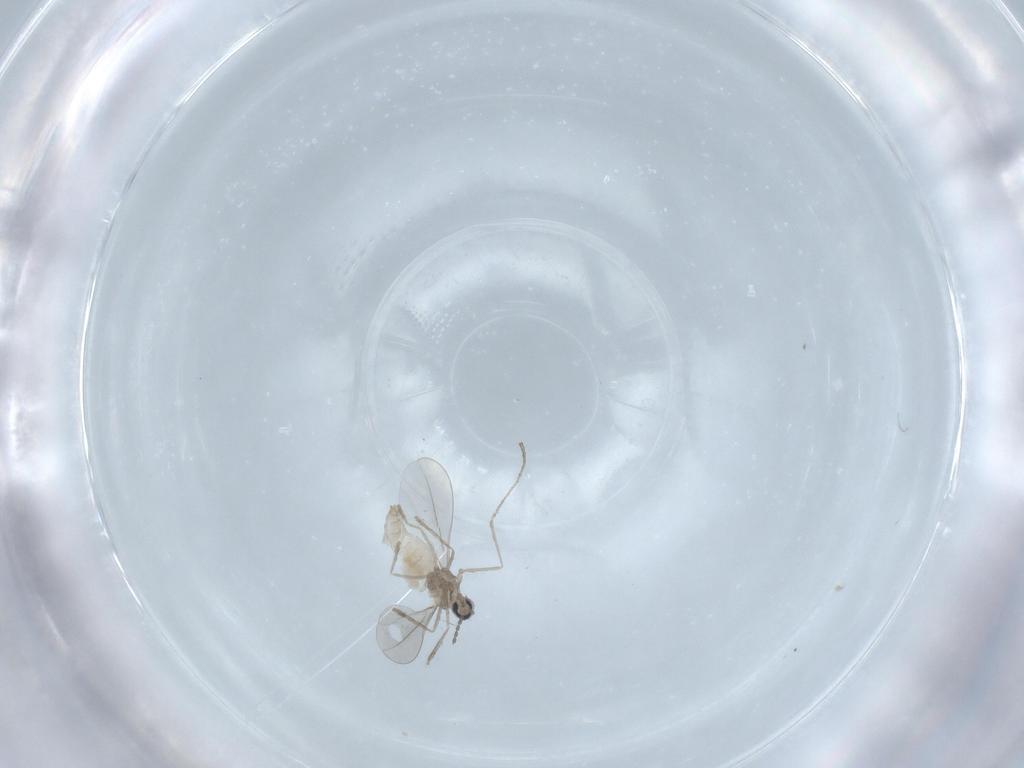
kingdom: Animalia
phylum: Arthropoda
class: Insecta
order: Diptera
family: Cecidomyiidae
